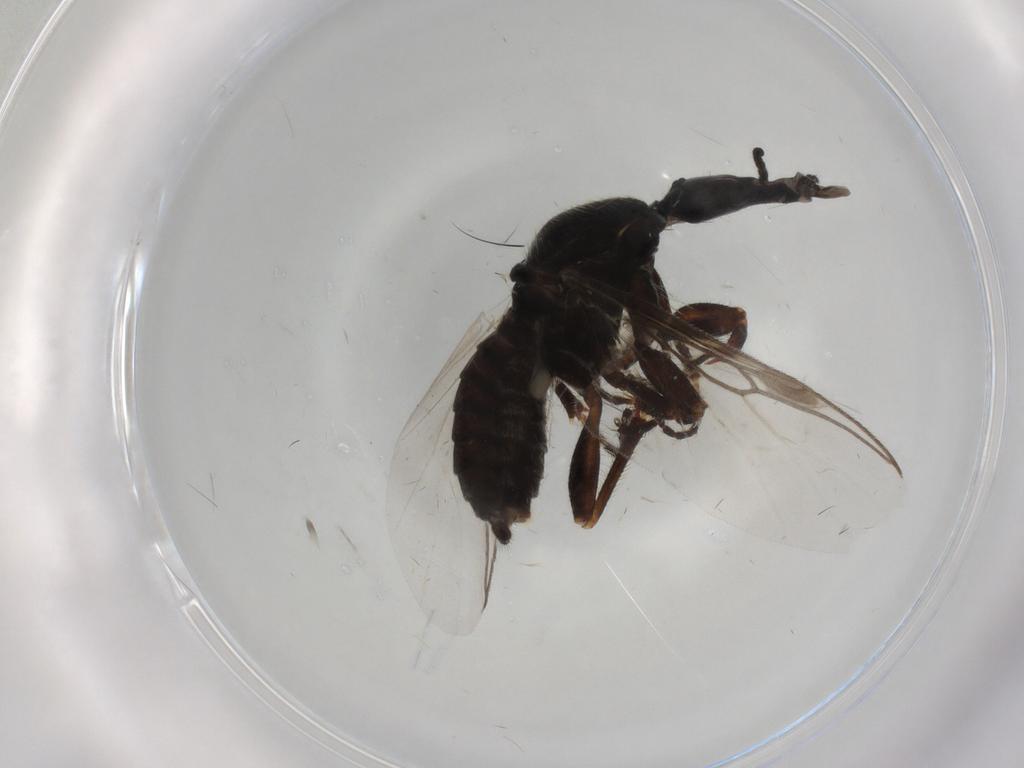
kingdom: Animalia
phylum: Arthropoda
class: Insecta
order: Diptera
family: Bibionidae
